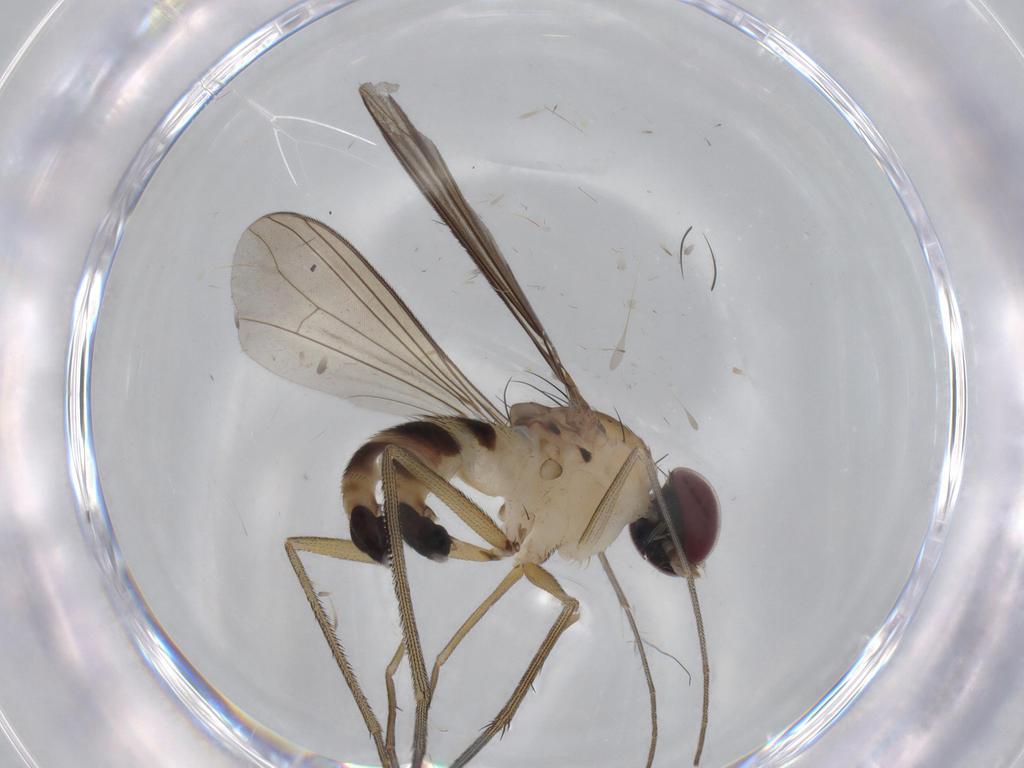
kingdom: Animalia
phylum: Arthropoda
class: Insecta
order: Diptera
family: Dolichopodidae
